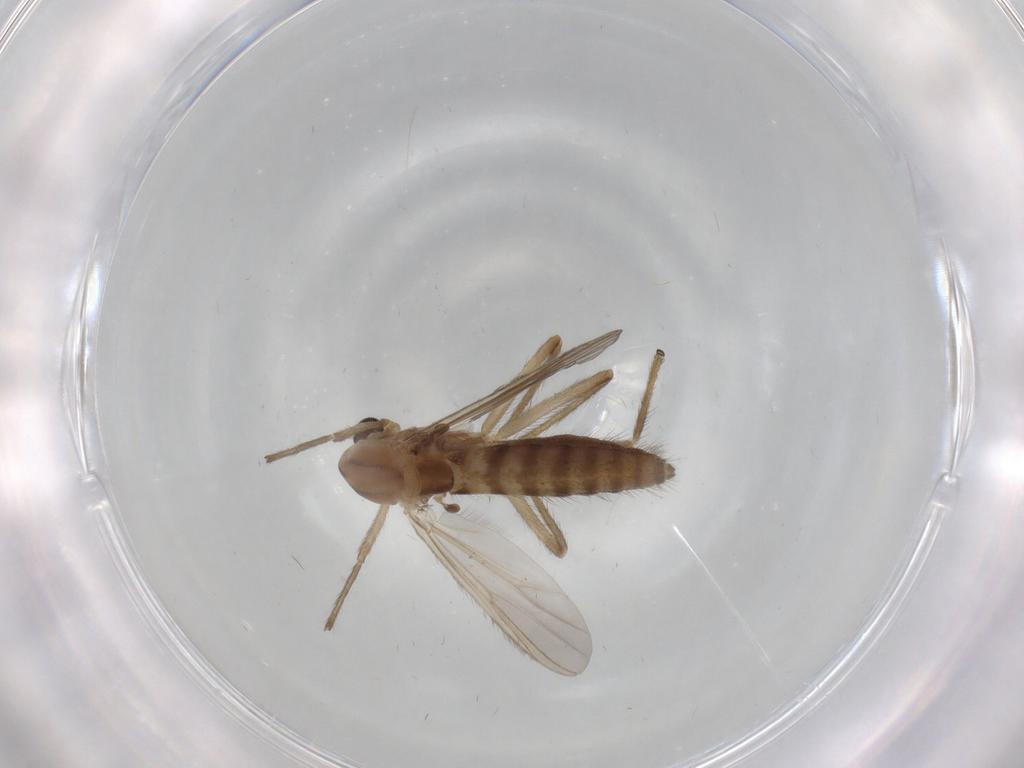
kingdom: Animalia
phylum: Arthropoda
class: Insecta
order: Diptera
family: Chironomidae
